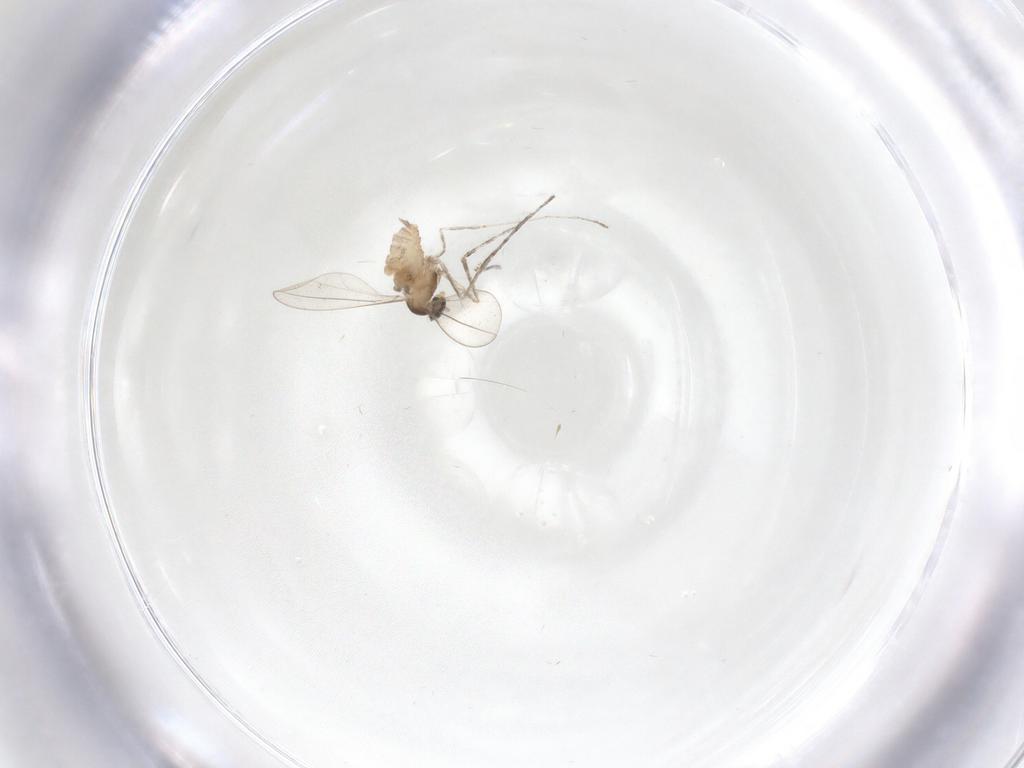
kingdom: Animalia
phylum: Arthropoda
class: Insecta
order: Diptera
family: Cecidomyiidae
